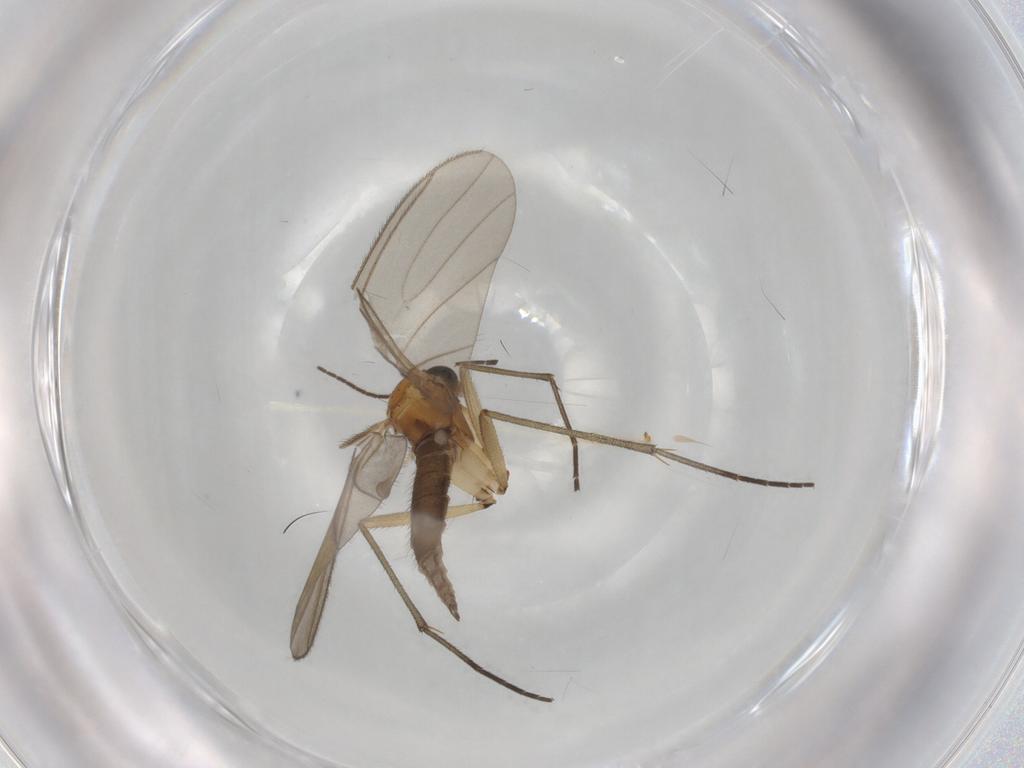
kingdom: Animalia
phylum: Arthropoda
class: Insecta
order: Diptera
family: Sciaridae
